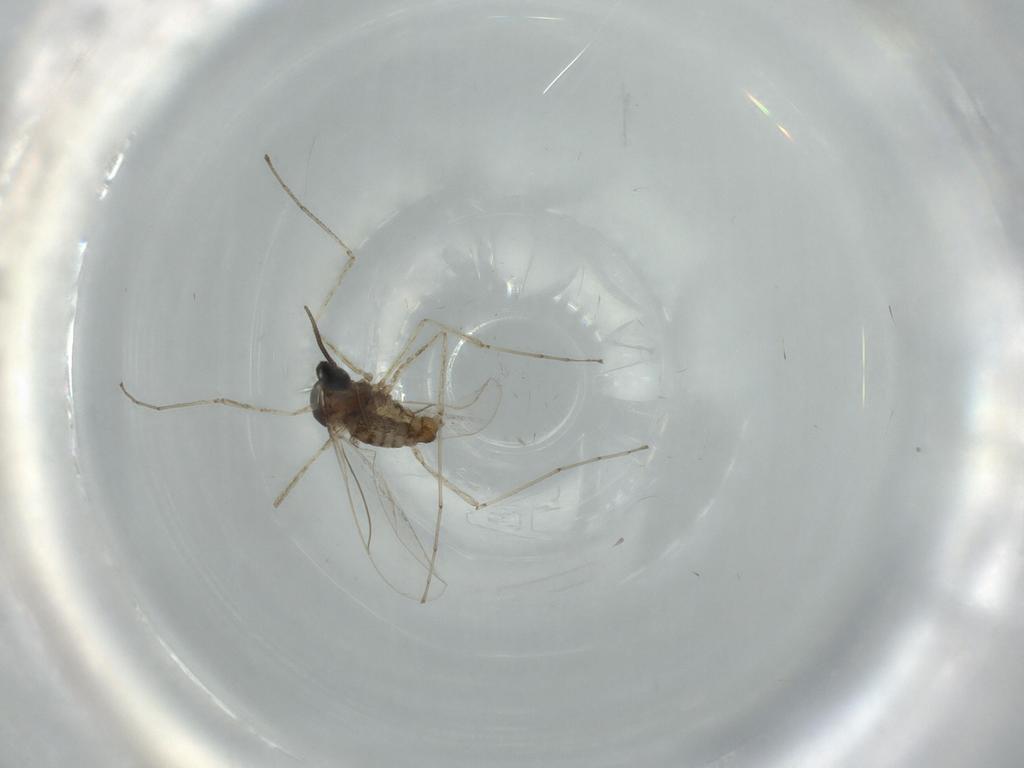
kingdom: Animalia
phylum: Arthropoda
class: Insecta
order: Diptera
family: Cecidomyiidae
